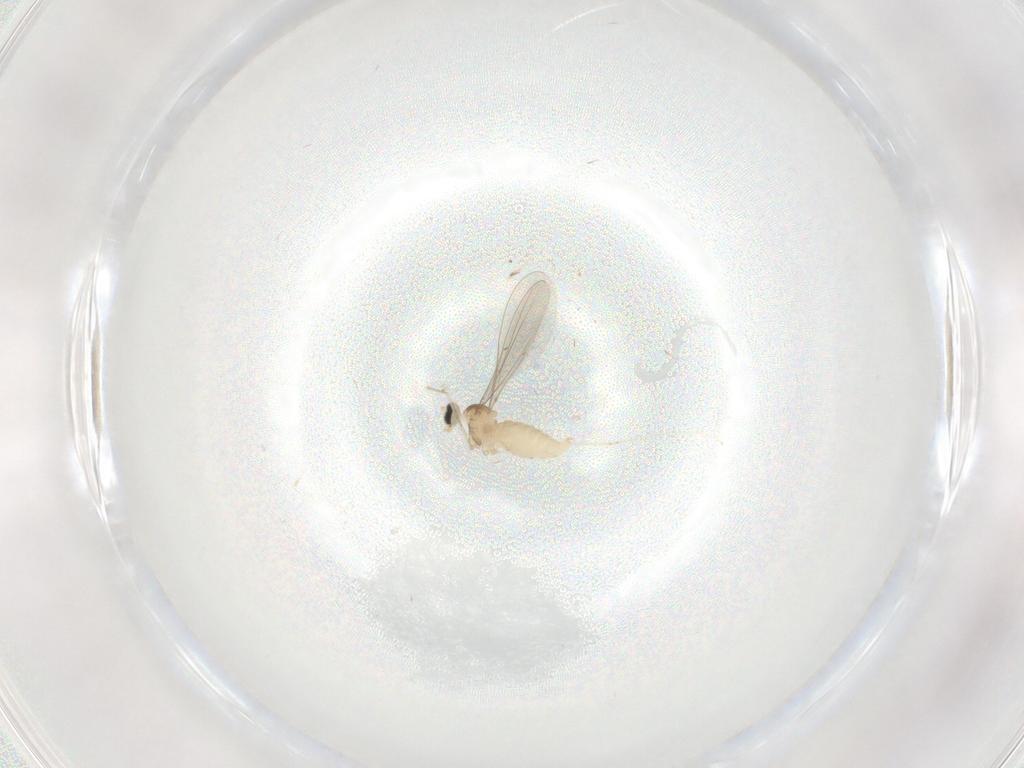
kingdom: Animalia
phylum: Arthropoda
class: Insecta
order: Diptera
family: Cecidomyiidae
